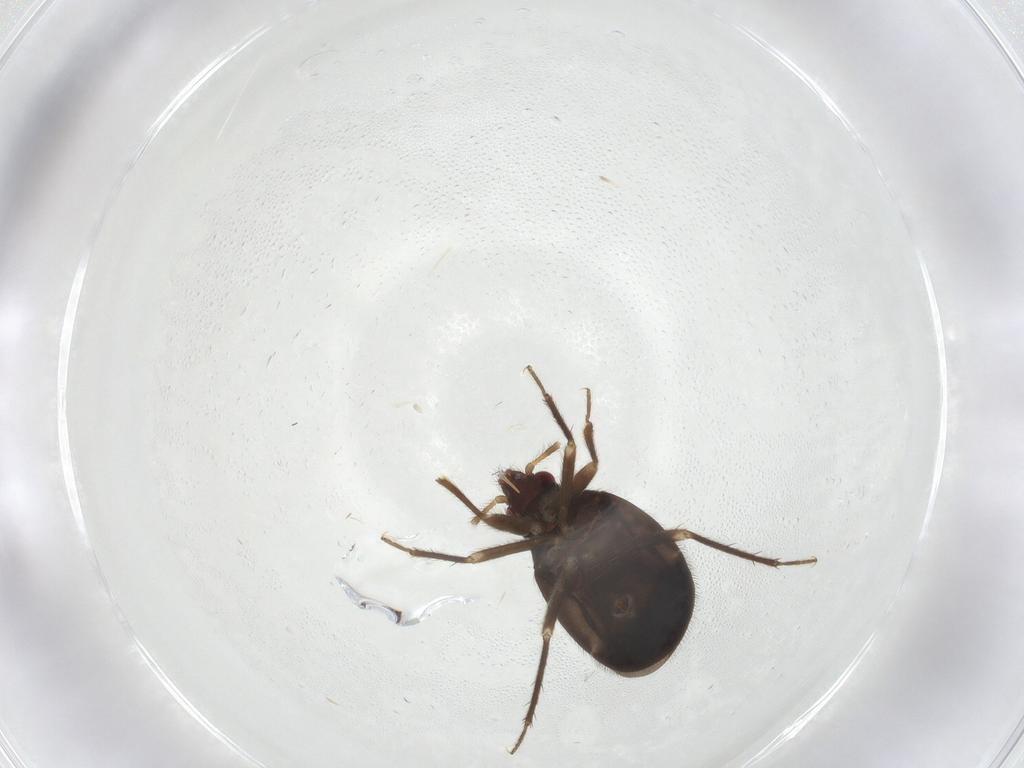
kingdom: Animalia
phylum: Arthropoda
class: Insecta
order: Hemiptera
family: Ceratocombidae
